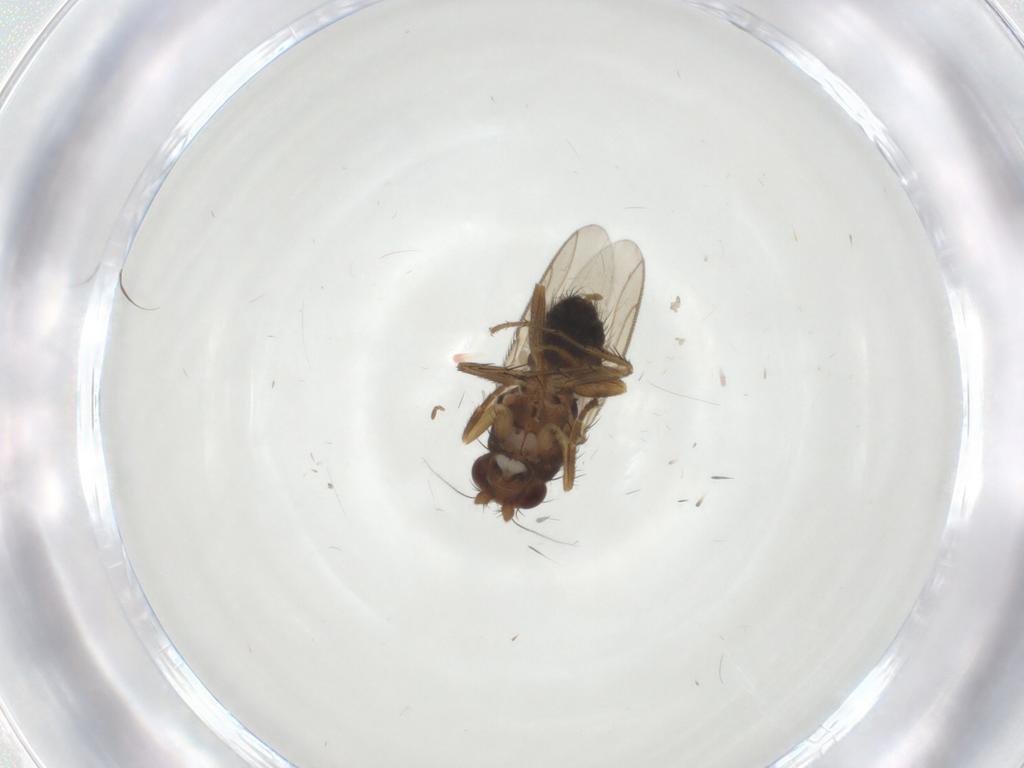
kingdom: Animalia
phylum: Arthropoda
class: Insecta
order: Diptera
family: Sphaeroceridae
